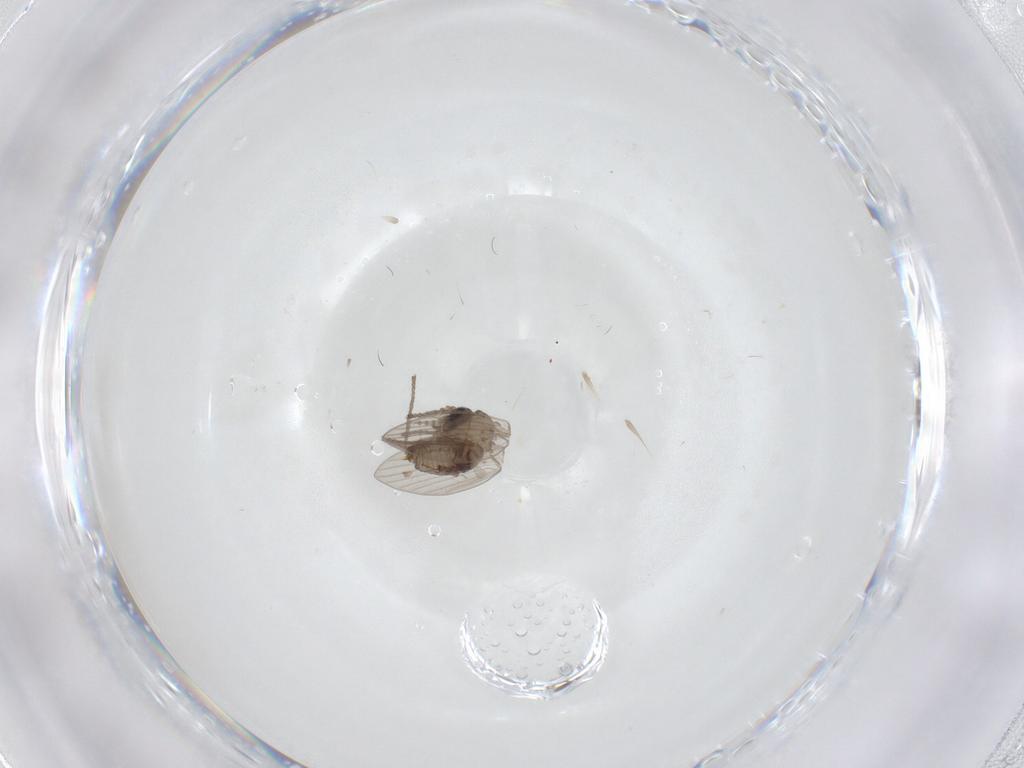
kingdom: Animalia
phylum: Arthropoda
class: Insecta
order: Diptera
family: Psychodidae
